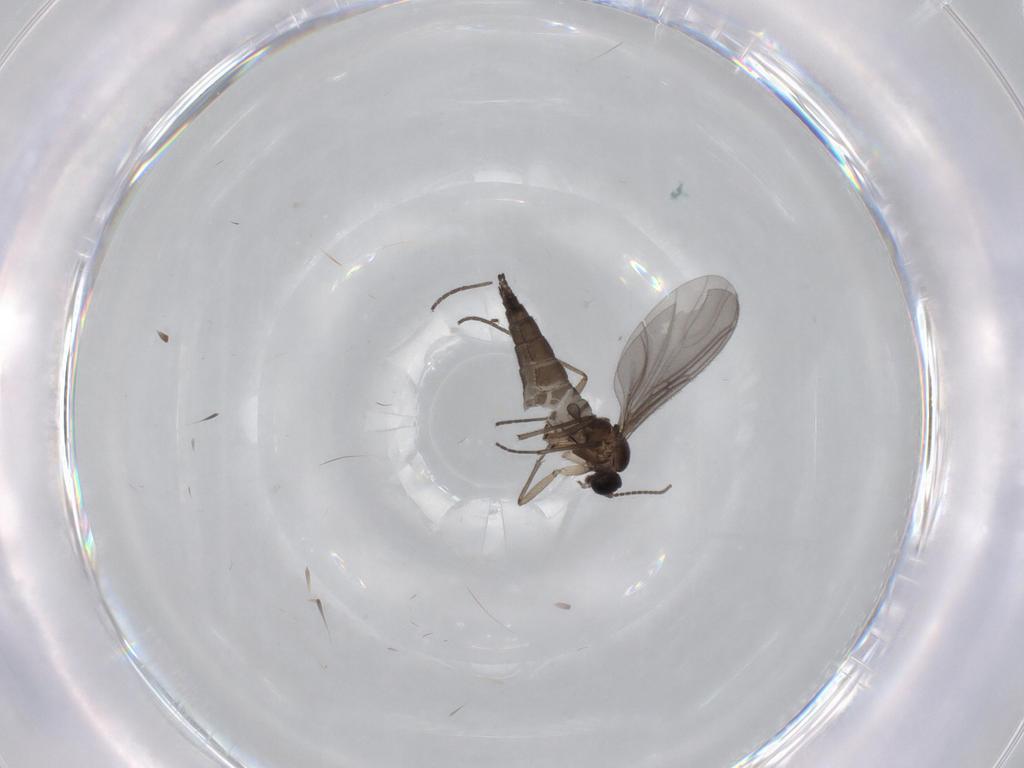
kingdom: Animalia
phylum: Arthropoda
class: Insecta
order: Diptera
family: Sciaridae
